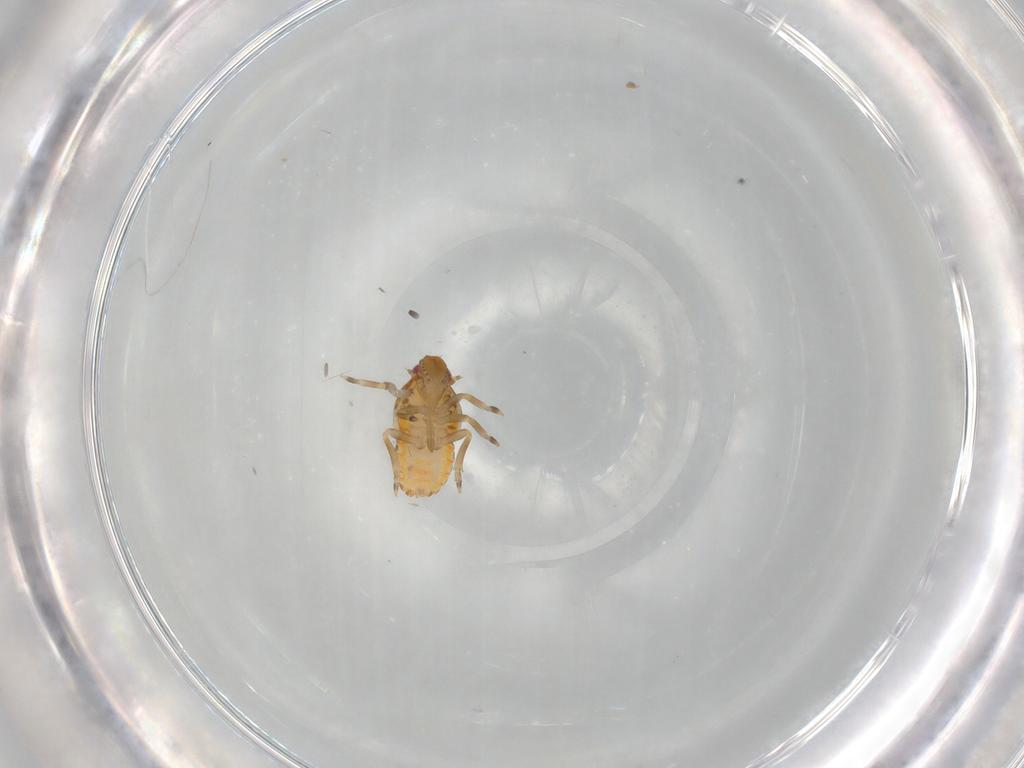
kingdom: Animalia
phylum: Arthropoda
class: Insecta
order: Hemiptera
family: Flatidae
